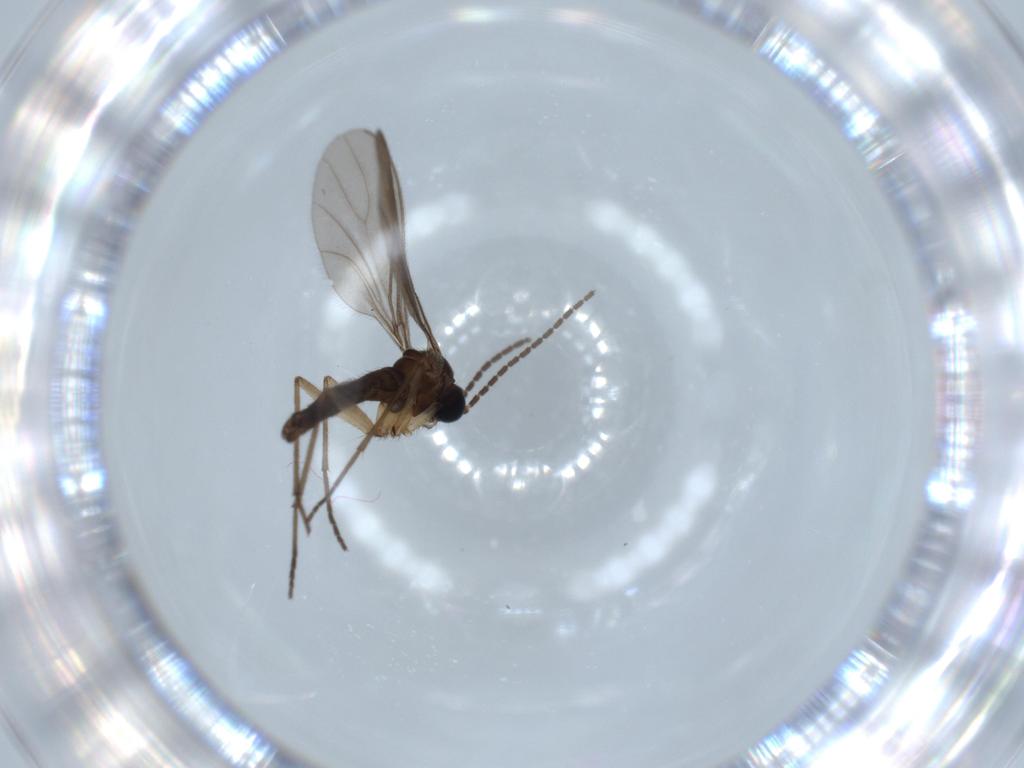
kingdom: Animalia
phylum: Arthropoda
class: Insecta
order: Diptera
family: Sciaridae
